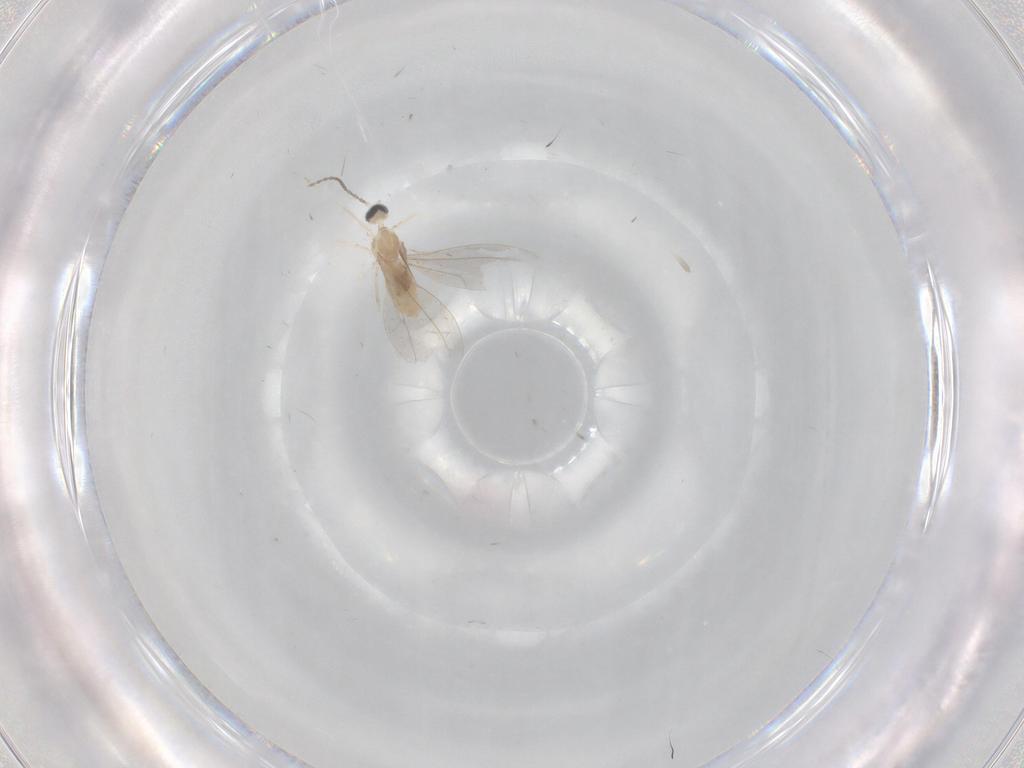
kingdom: Animalia
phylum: Arthropoda
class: Insecta
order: Diptera
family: Cecidomyiidae
